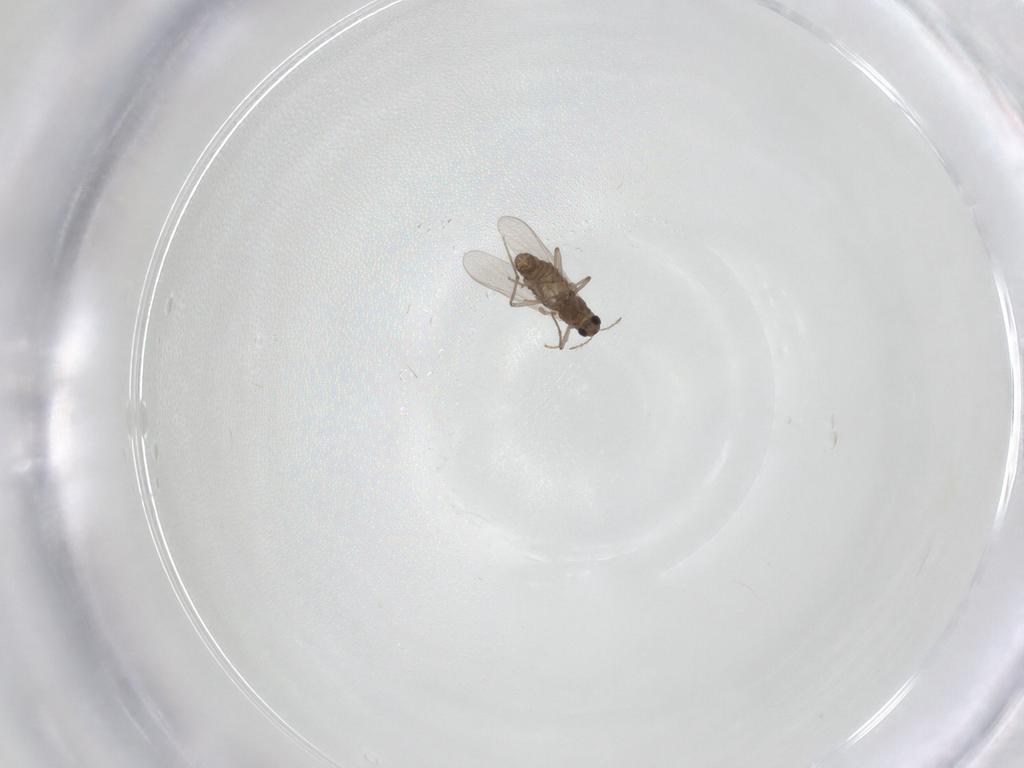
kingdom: Animalia
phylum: Arthropoda
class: Insecta
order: Diptera
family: Chironomidae
